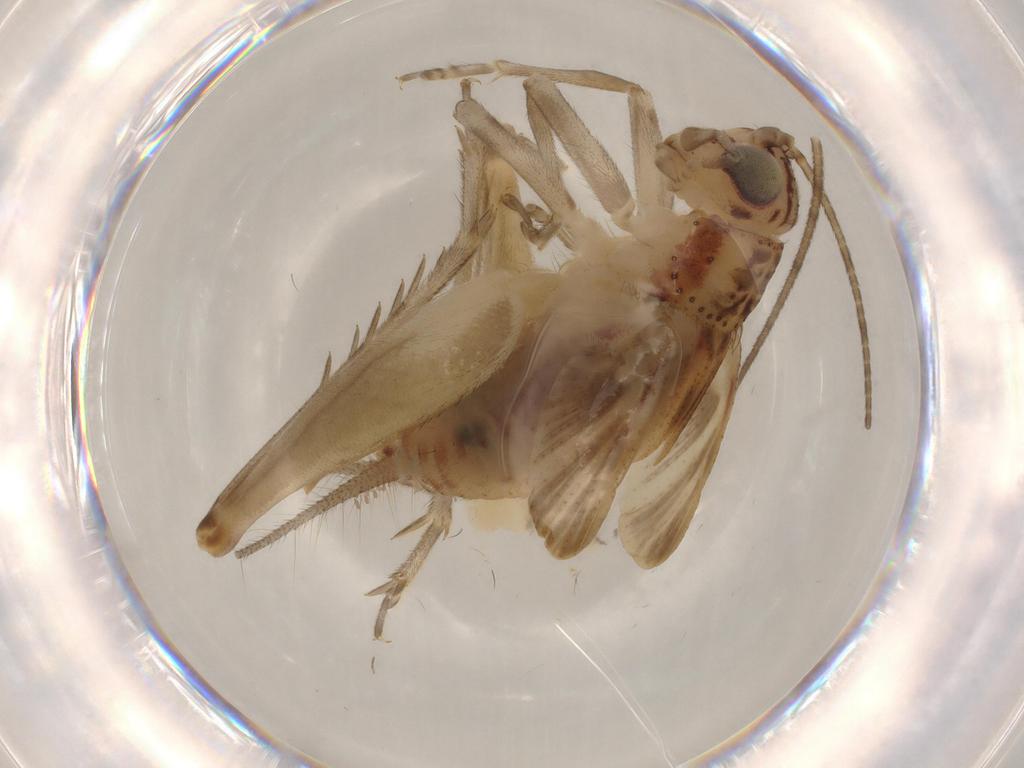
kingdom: Animalia
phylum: Arthropoda
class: Insecta
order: Orthoptera
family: Trigonidiidae
